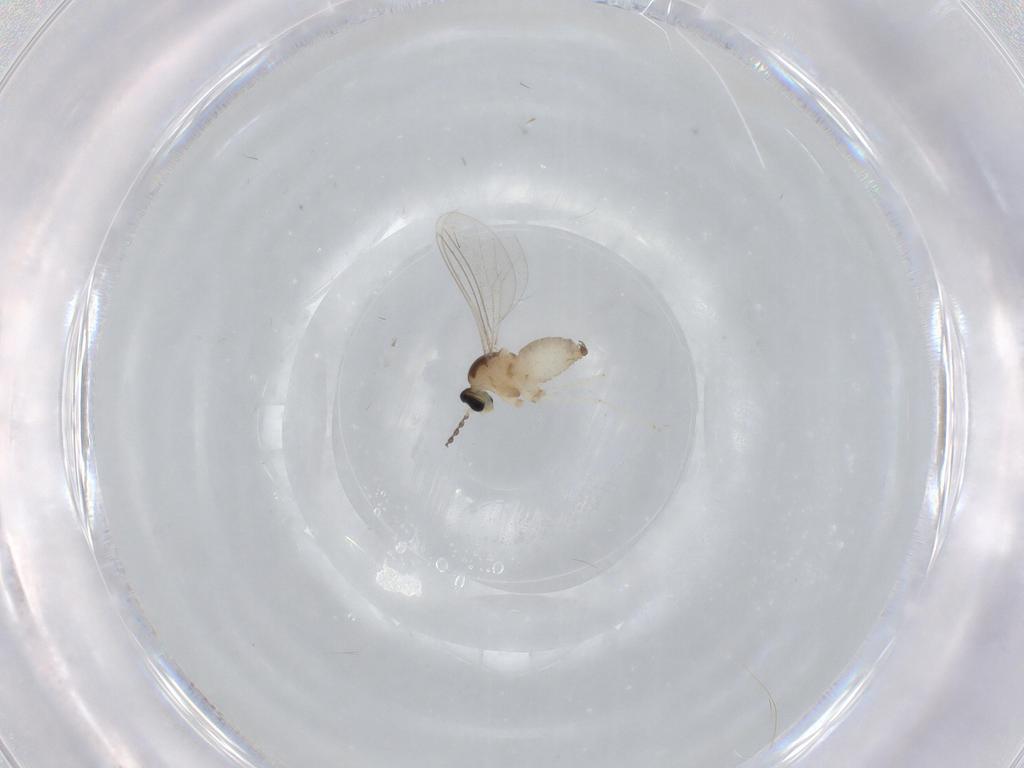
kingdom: Animalia
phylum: Arthropoda
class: Insecta
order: Diptera
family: Cecidomyiidae
